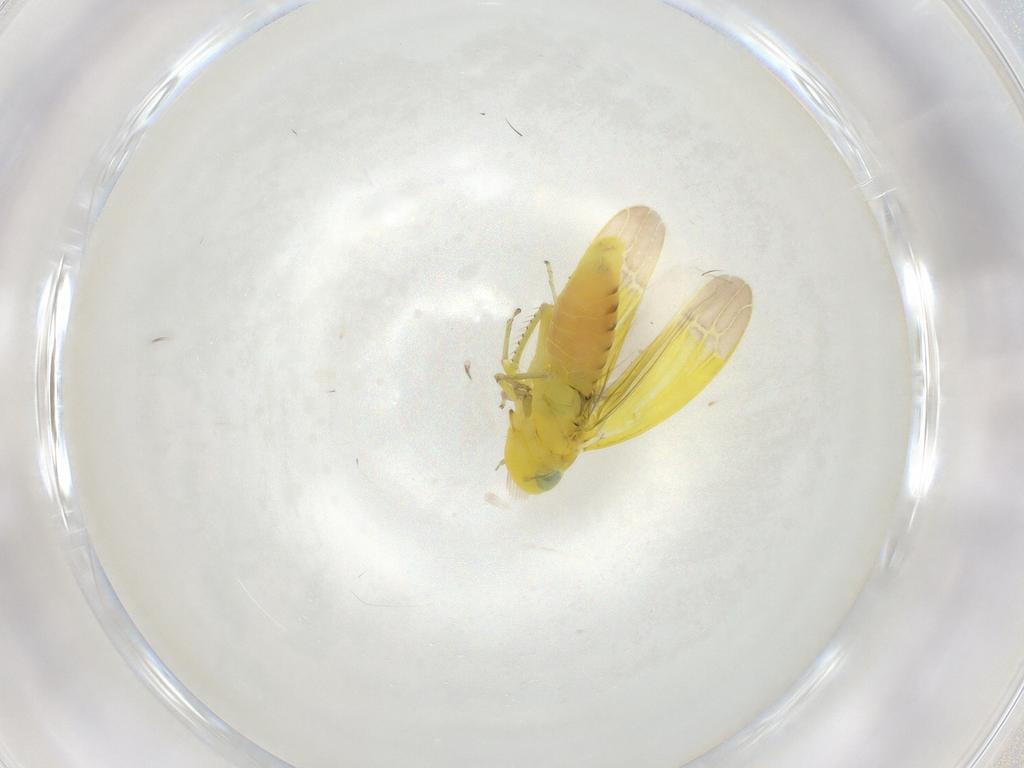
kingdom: Animalia
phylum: Arthropoda
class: Insecta
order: Hemiptera
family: Cicadellidae
